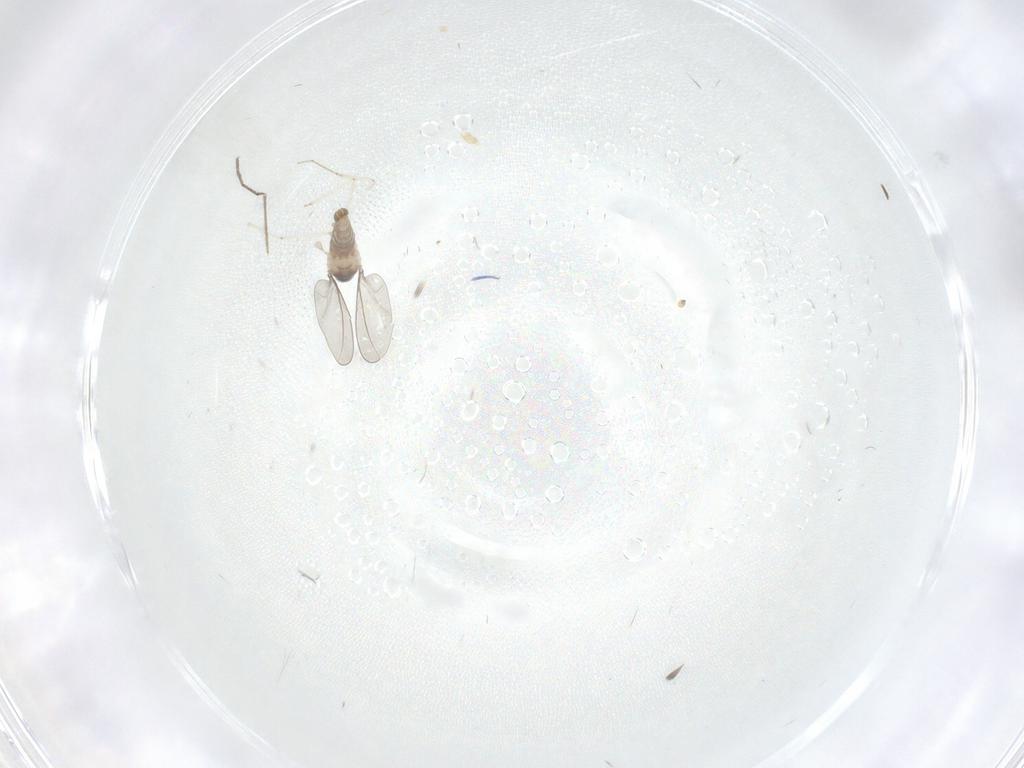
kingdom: Animalia
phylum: Arthropoda
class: Insecta
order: Diptera
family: Cecidomyiidae
